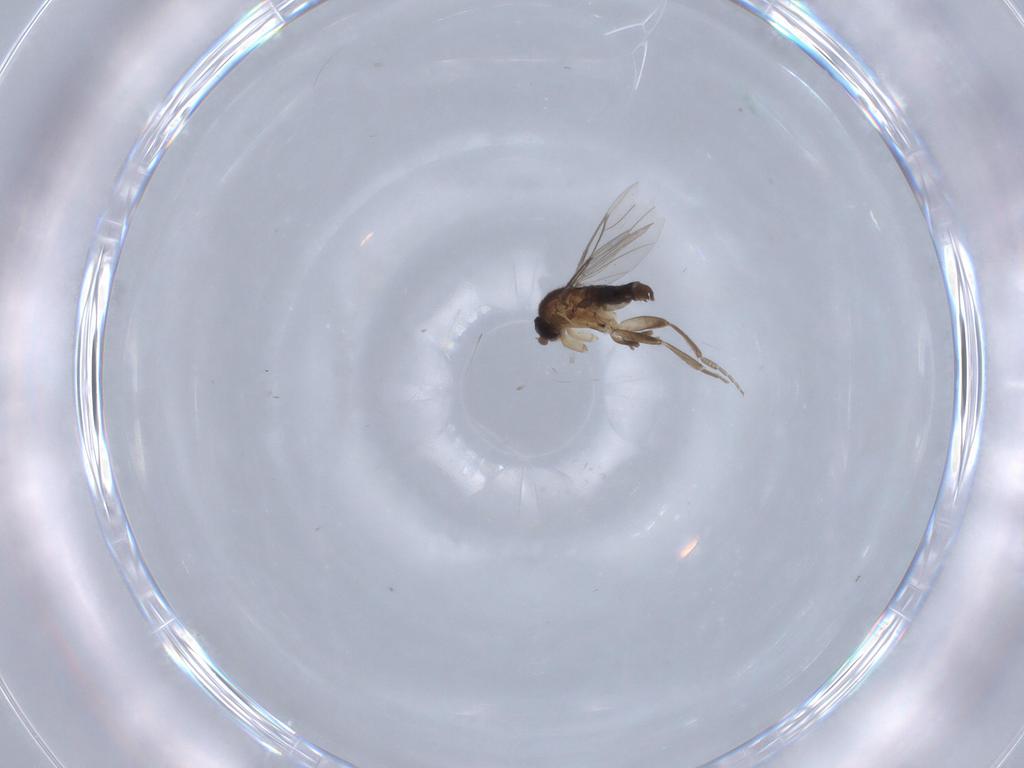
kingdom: Animalia
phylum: Arthropoda
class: Insecta
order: Diptera
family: Phoridae
